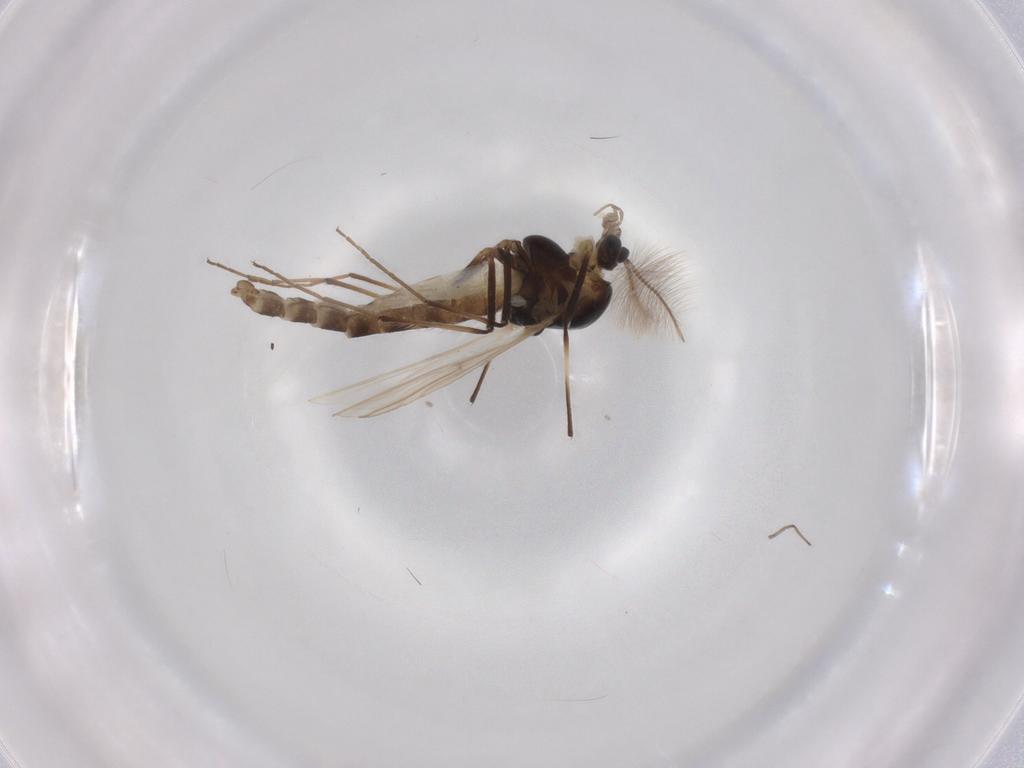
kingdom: Animalia
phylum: Arthropoda
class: Insecta
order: Diptera
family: Chironomidae
